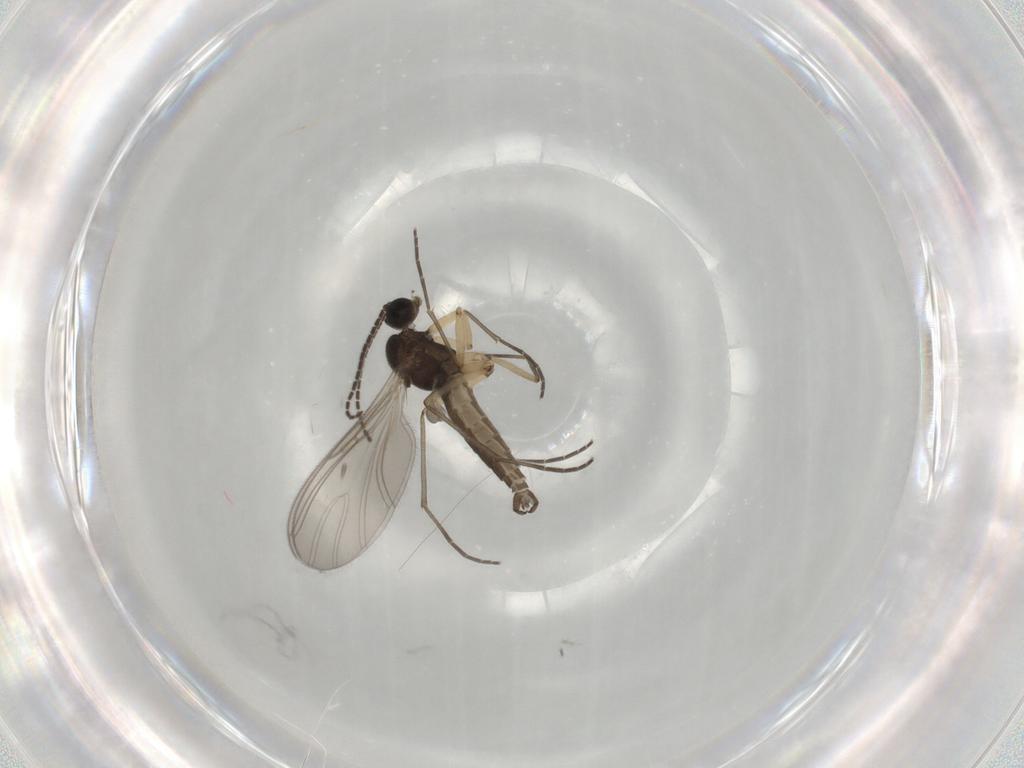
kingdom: Animalia
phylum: Arthropoda
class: Insecta
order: Diptera
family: Sciaridae
